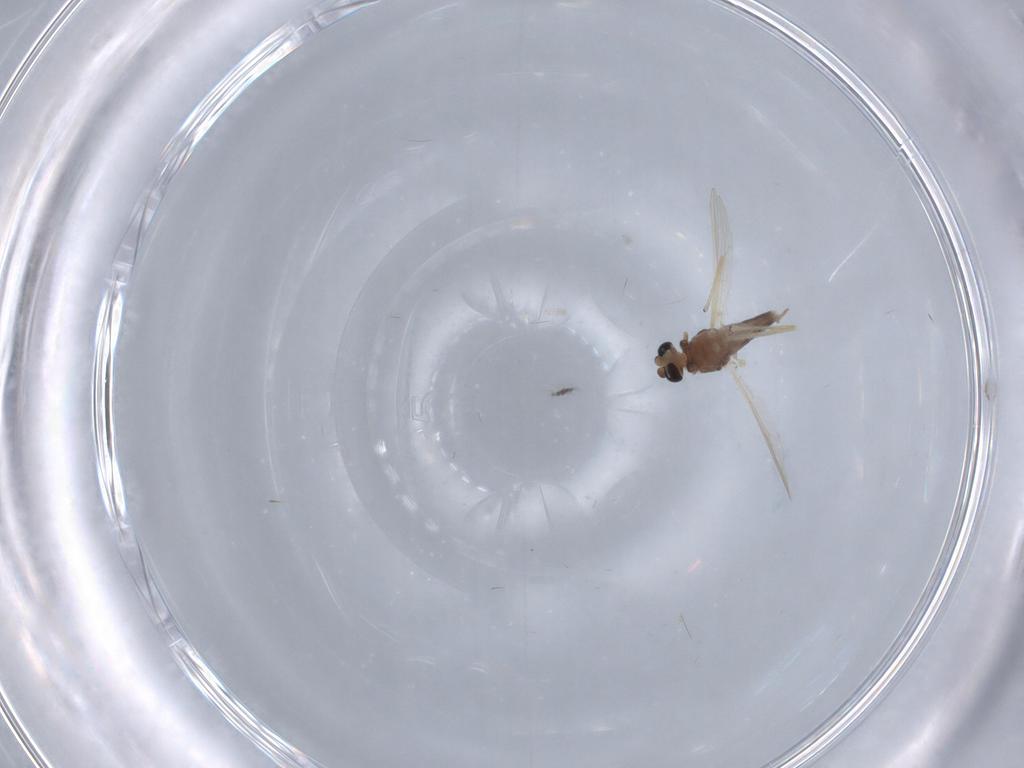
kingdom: Animalia
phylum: Arthropoda
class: Insecta
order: Diptera
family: Chironomidae
